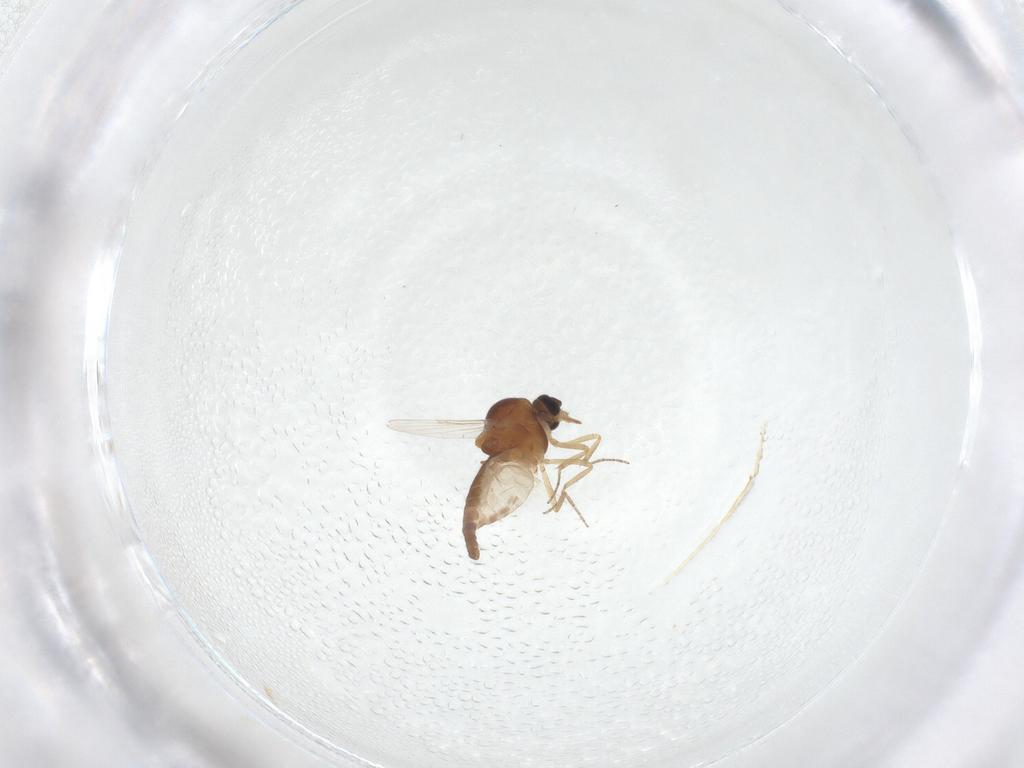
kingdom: Animalia
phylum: Arthropoda
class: Insecta
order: Diptera
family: Ceratopogonidae
